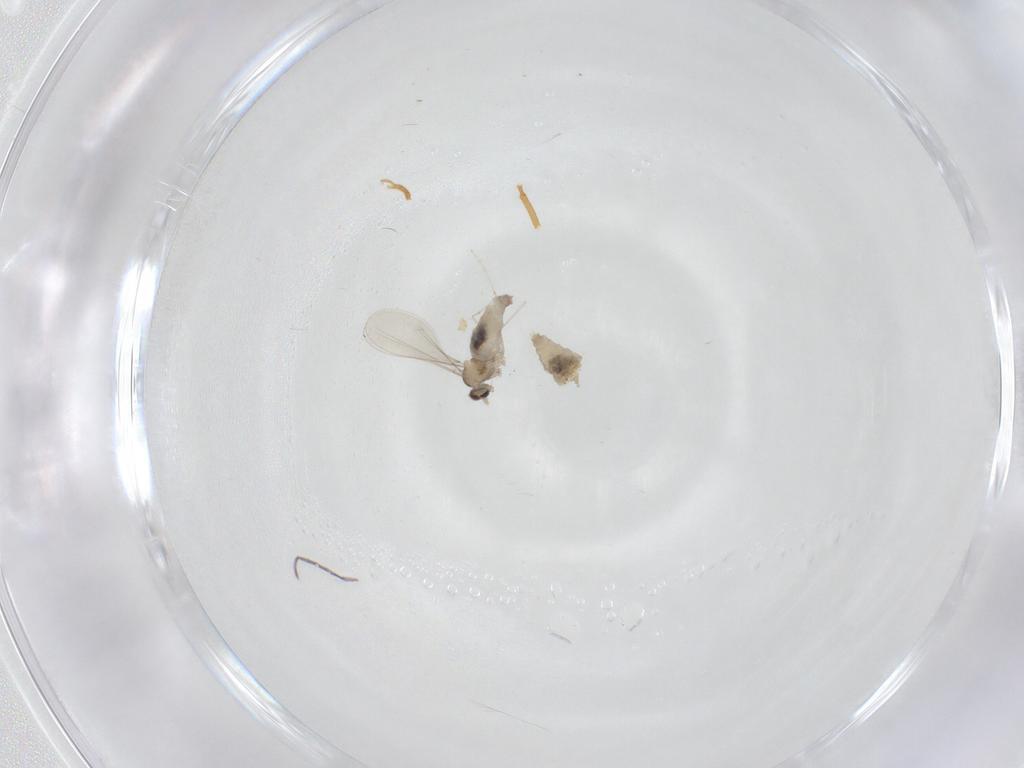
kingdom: Animalia
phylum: Arthropoda
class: Insecta
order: Diptera
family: Cecidomyiidae
